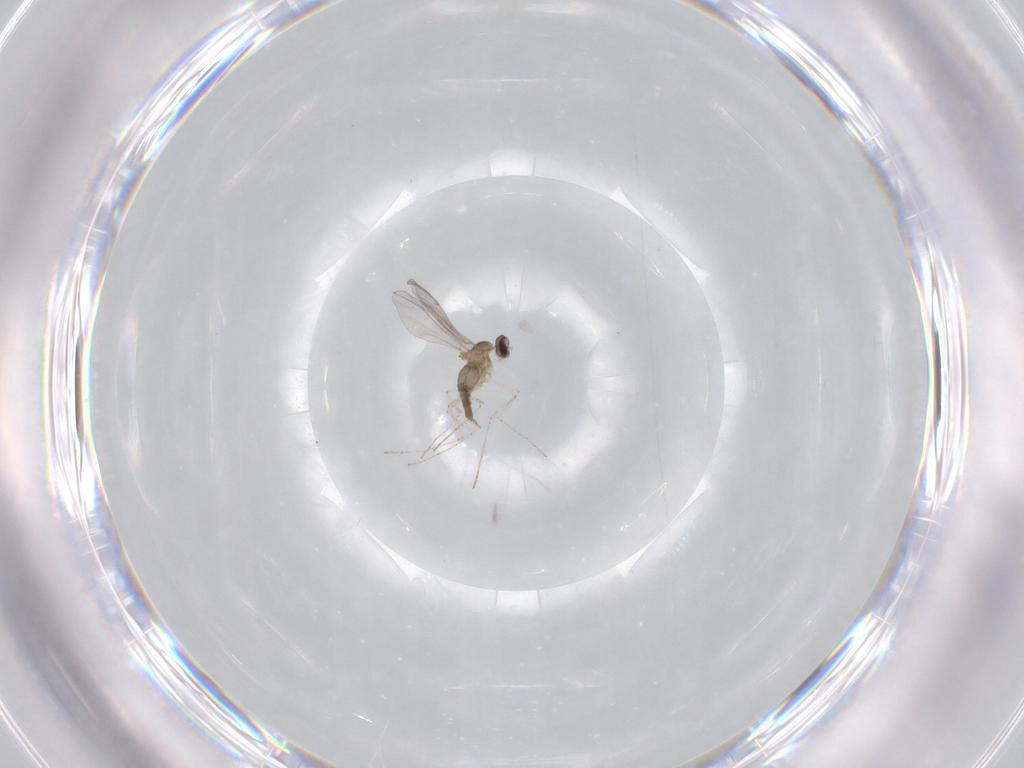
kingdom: Animalia
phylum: Arthropoda
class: Insecta
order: Diptera
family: Cecidomyiidae
